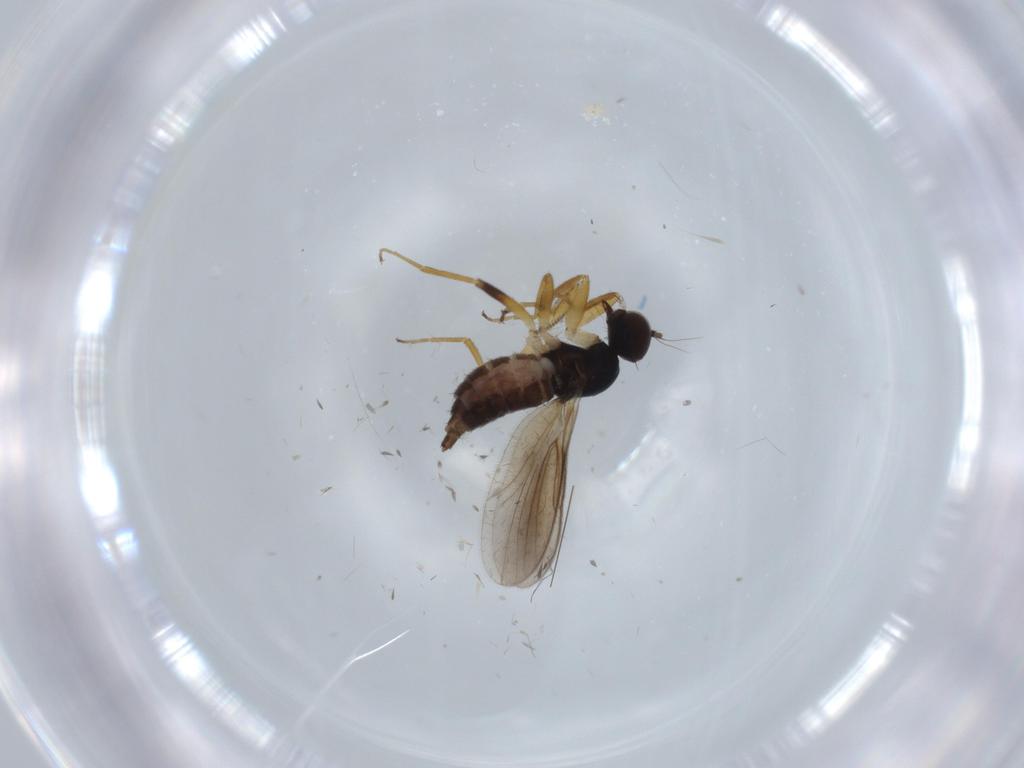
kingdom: Animalia
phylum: Arthropoda
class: Insecta
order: Diptera
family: Hybotidae
